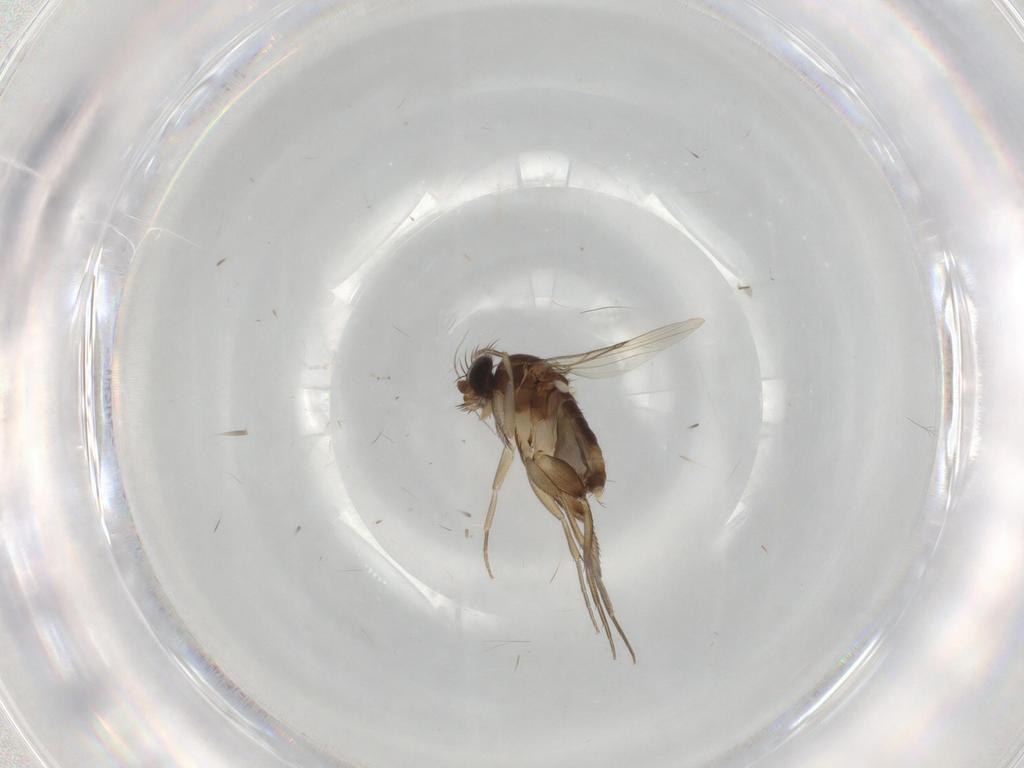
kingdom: Animalia
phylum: Arthropoda
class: Insecta
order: Diptera
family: Phoridae
